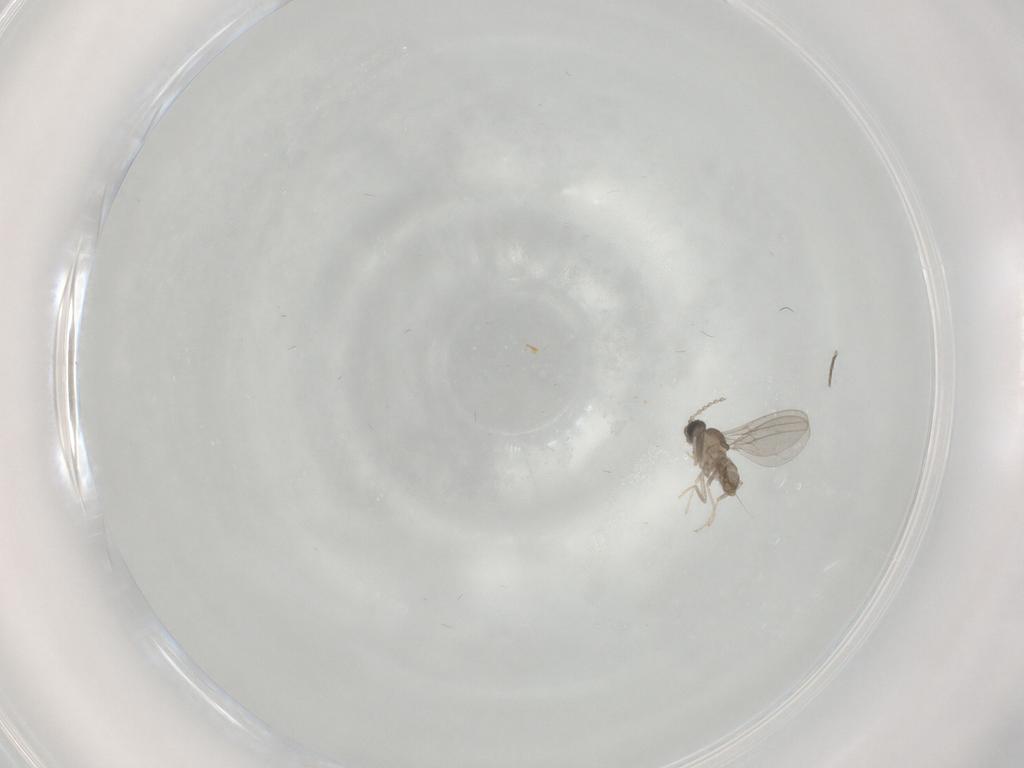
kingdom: Animalia
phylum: Arthropoda
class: Insecta
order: Diptera
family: Cecidomyiidae
